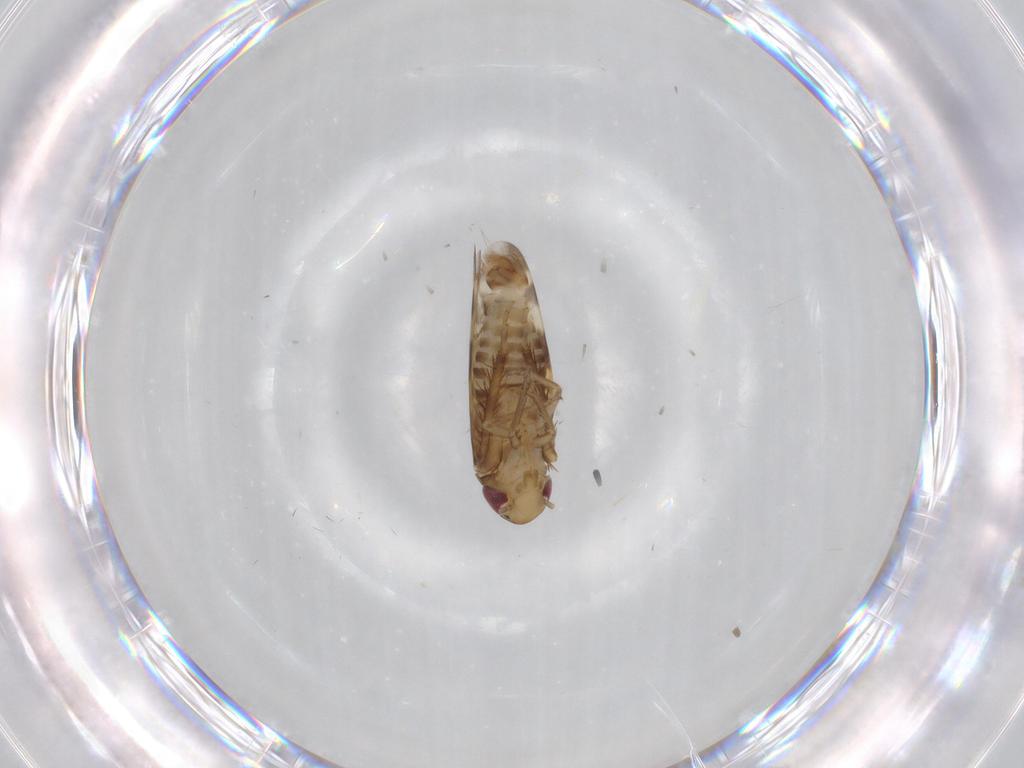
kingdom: Animalia
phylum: Arthropoda
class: Insecta
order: Hemiptera
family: Cicadellidae
